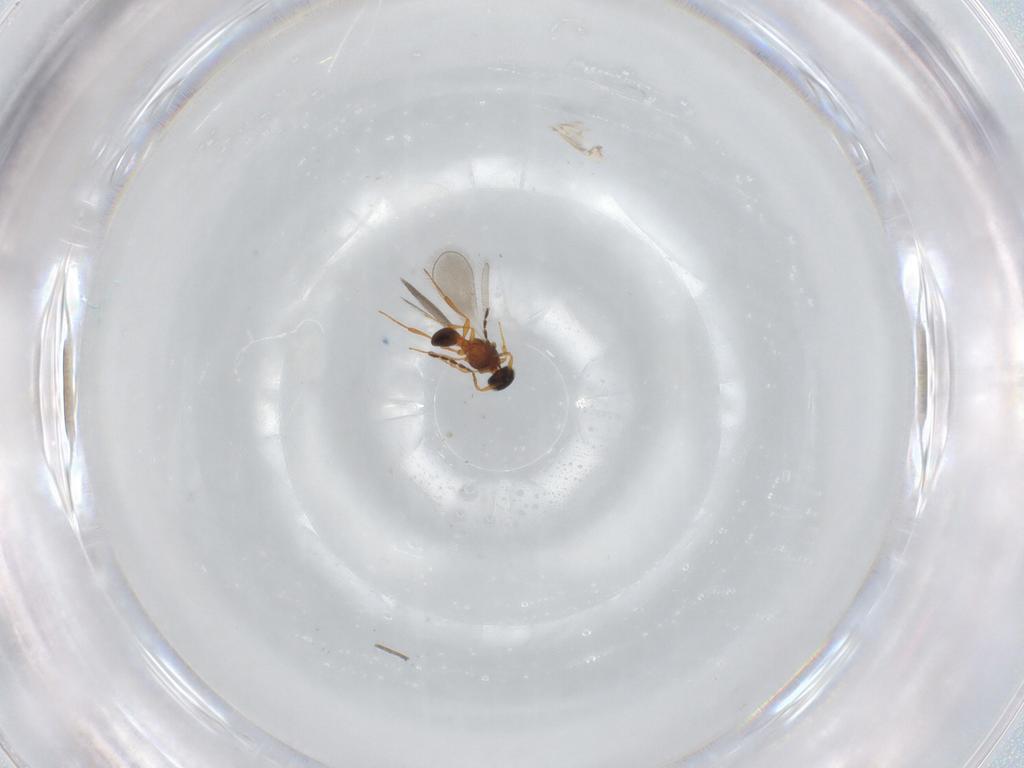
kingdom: Animalia
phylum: Arthropoda
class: Insecta
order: Hymenoptera
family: Platygastridae
